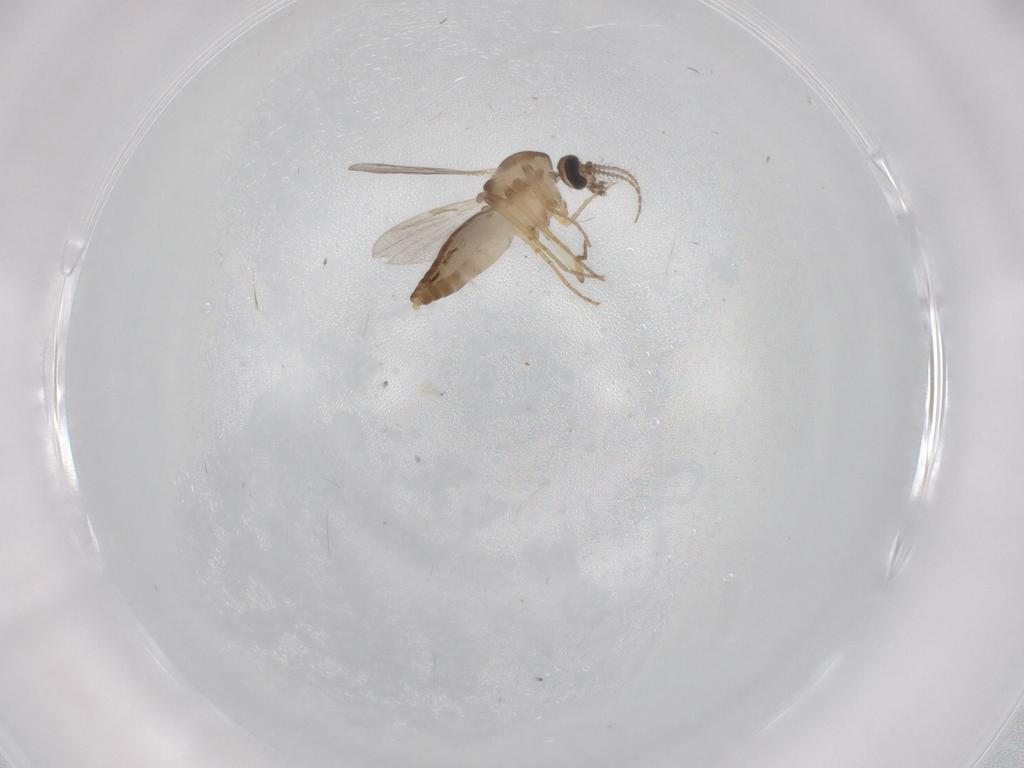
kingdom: Animalia
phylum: Arthropoda
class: Insecta
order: Diptera
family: Ceratopogonidae
